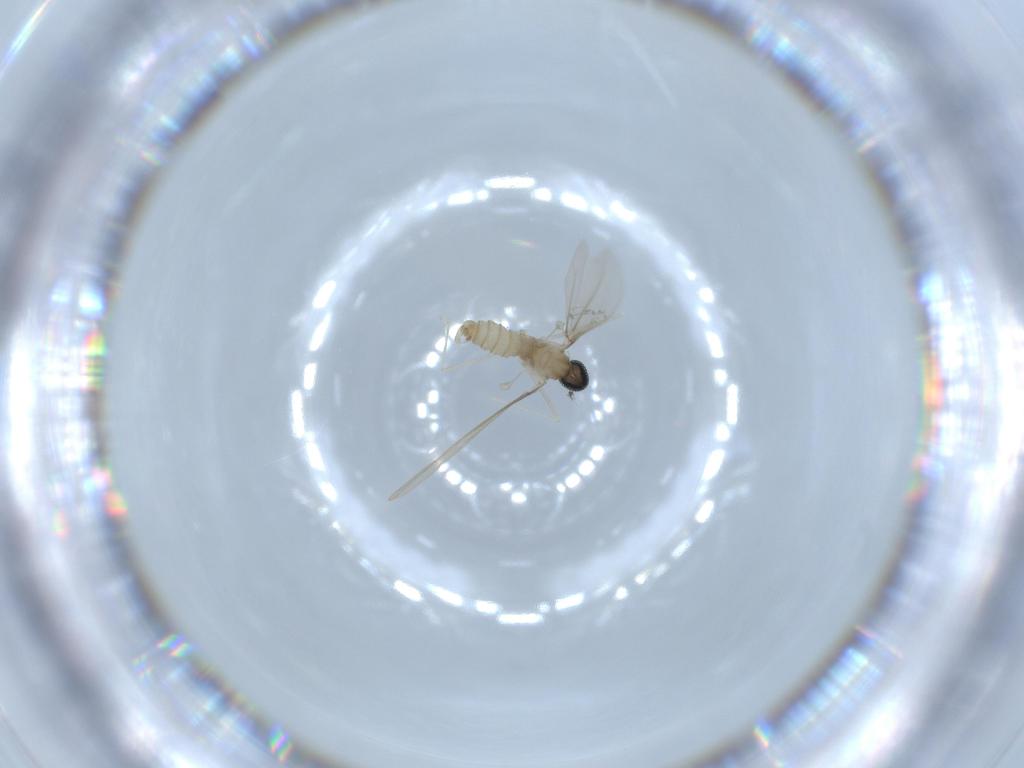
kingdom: Animalia
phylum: Arthropoda
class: Insecta
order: Diptera
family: Cecidomyiidae
